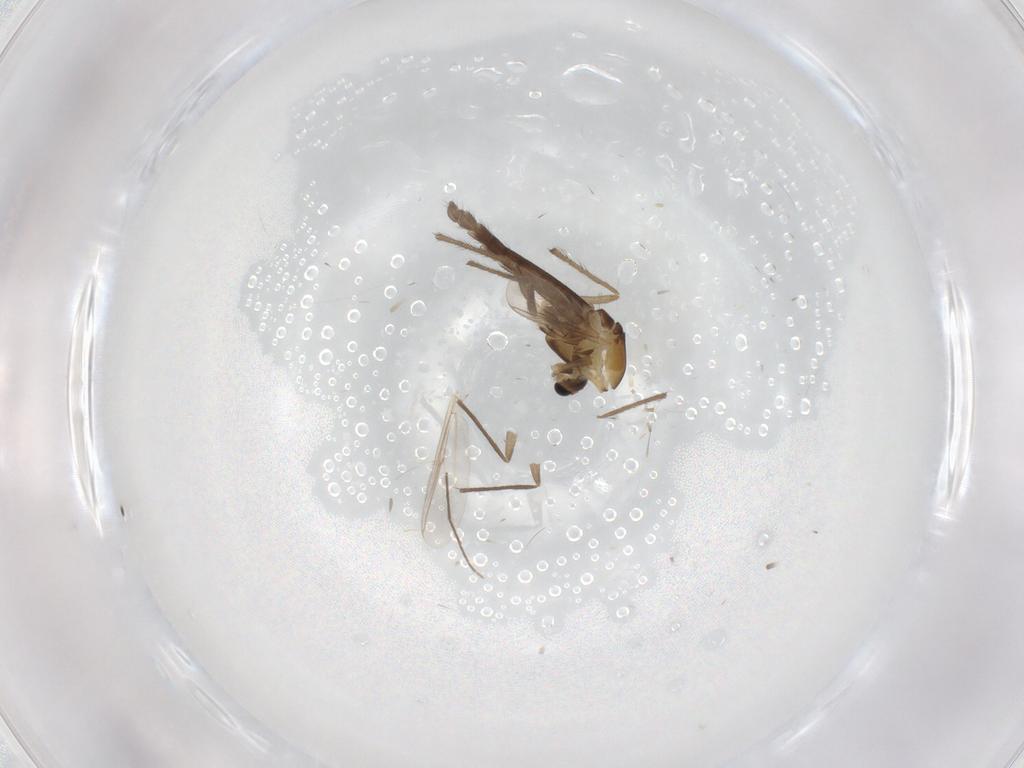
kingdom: Animalia
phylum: Arthropoda
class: Insecta
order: Diptera
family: Chironomidae
